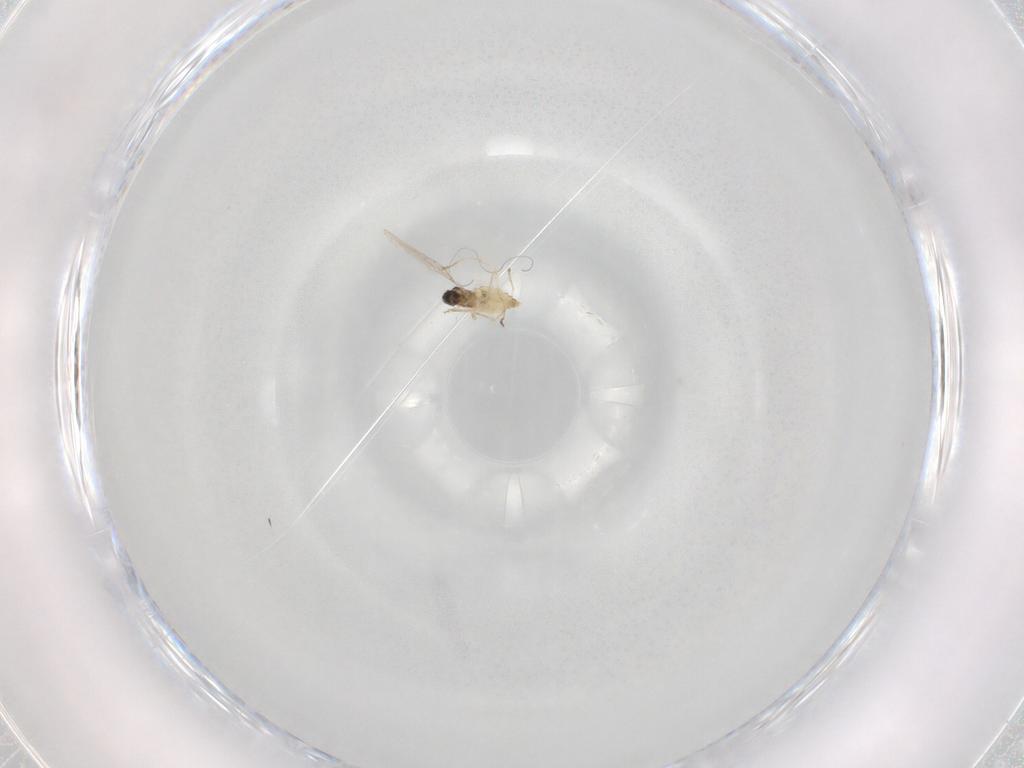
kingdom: Animalia
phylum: Arthropoda
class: Insecta
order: Diptera
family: Cecidomyiidae
